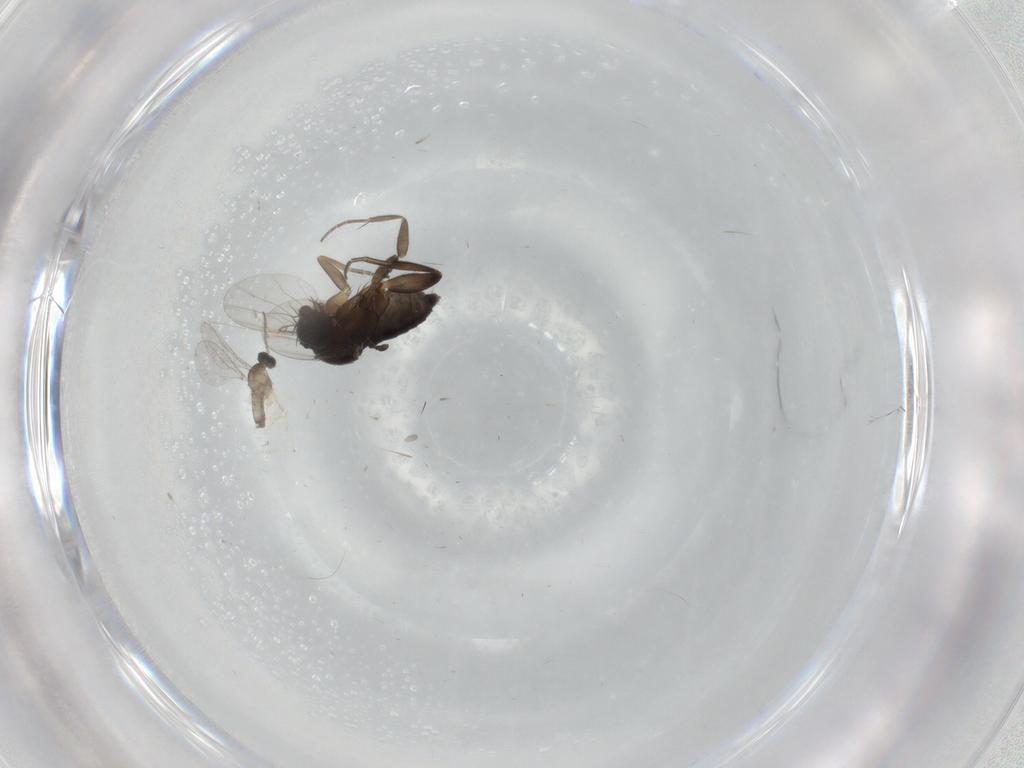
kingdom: Animalia
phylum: Arthropoda
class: Insecta
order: Diptera
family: Phoridae
